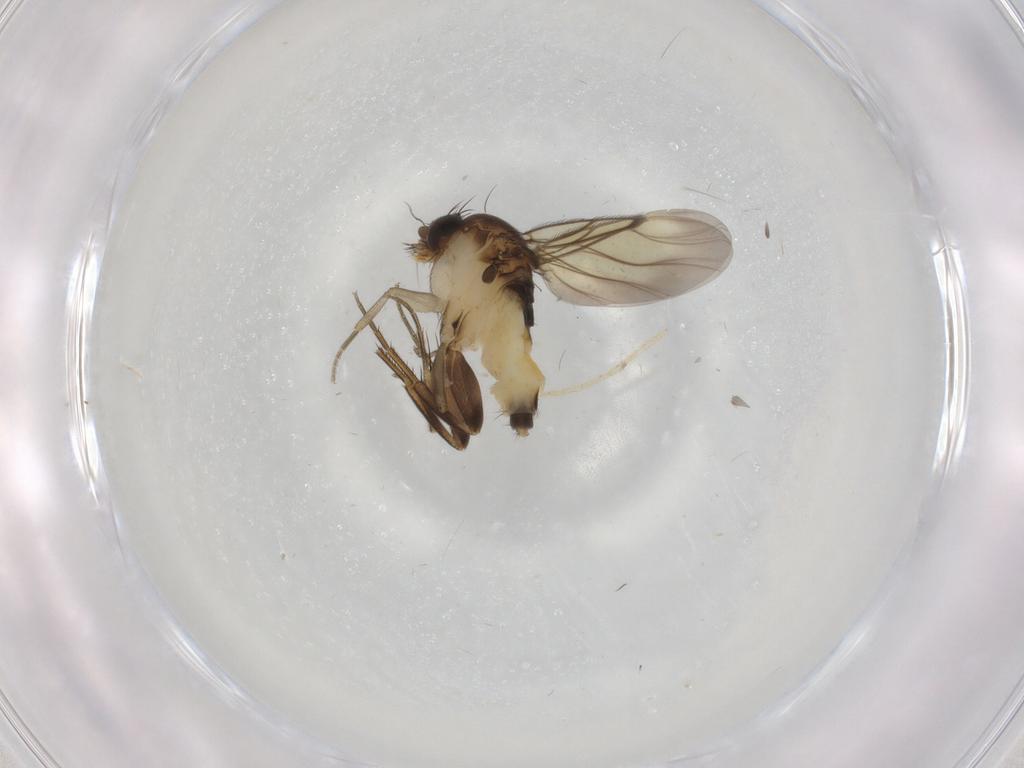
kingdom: Animalia
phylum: Arthropoda
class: Insecta
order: Diptera
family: Phoridae
